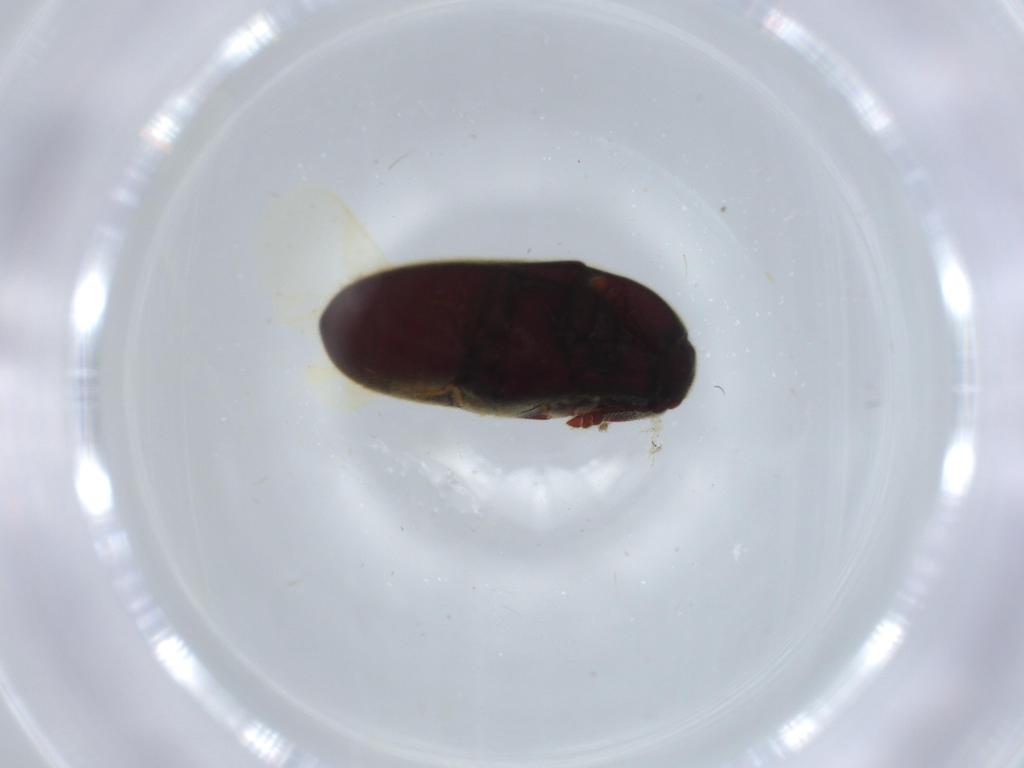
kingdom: Animalia
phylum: Arthropoda
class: Insecta
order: Coleoptera
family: Throscidae
